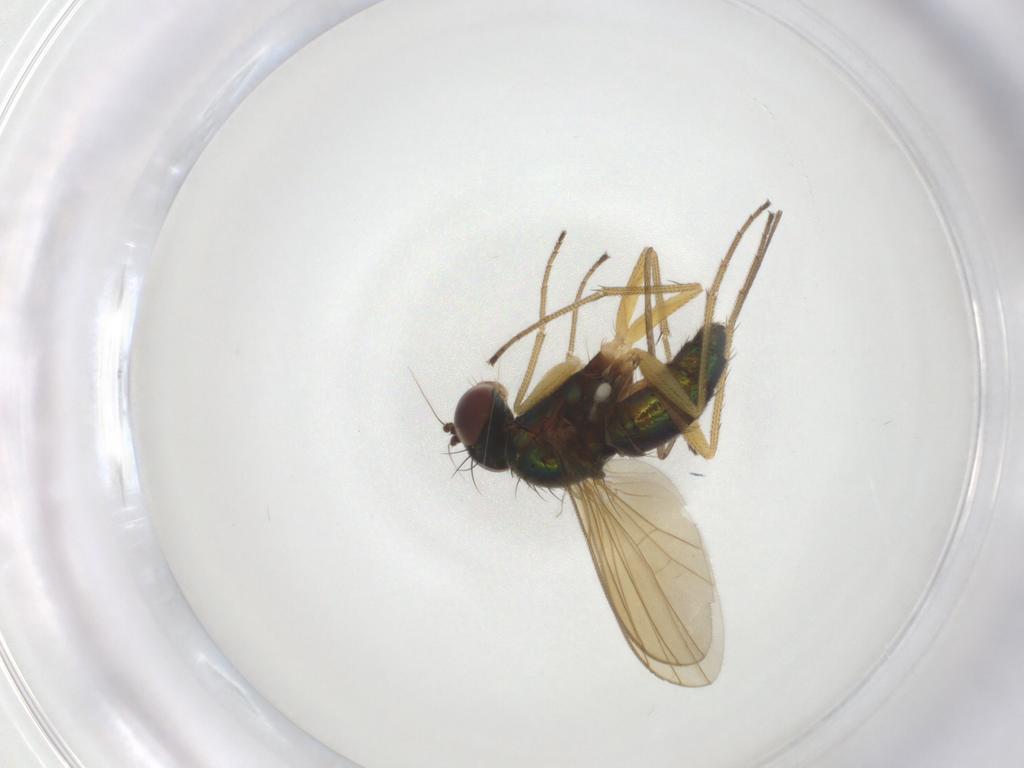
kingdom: Animalia
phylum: Arthropoda
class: Insecta
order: Diptera
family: Dolichopodidae
